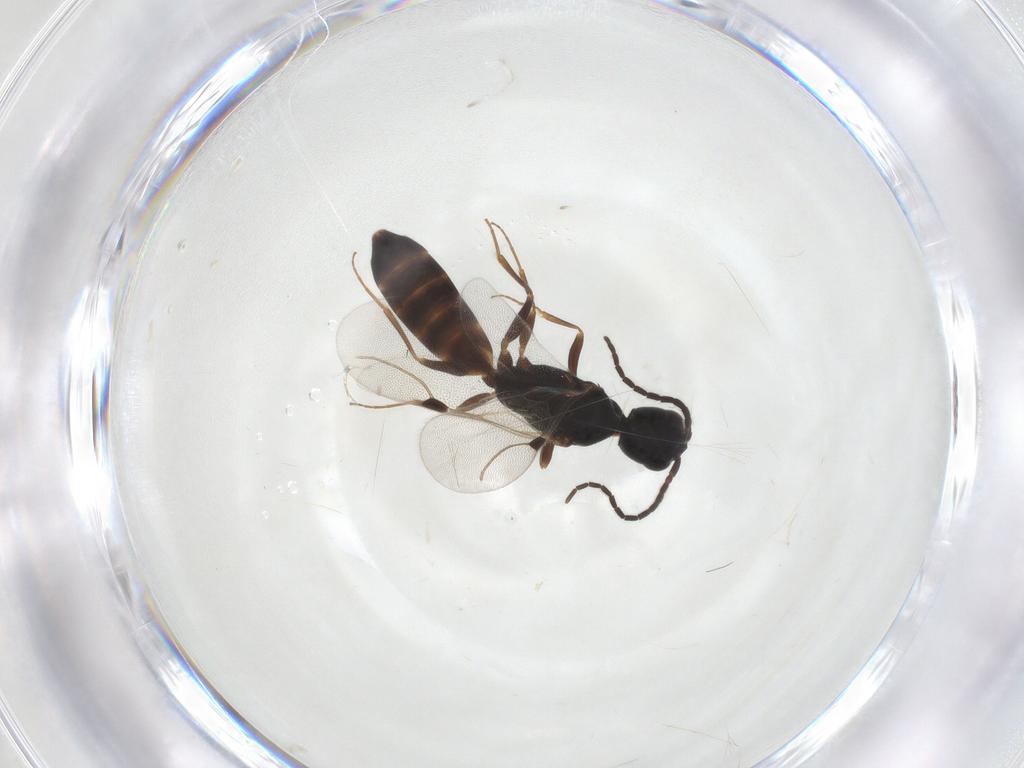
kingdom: Animalia
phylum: Arthropoda
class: Insecta
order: Hymenoptera
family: Bethylidae
